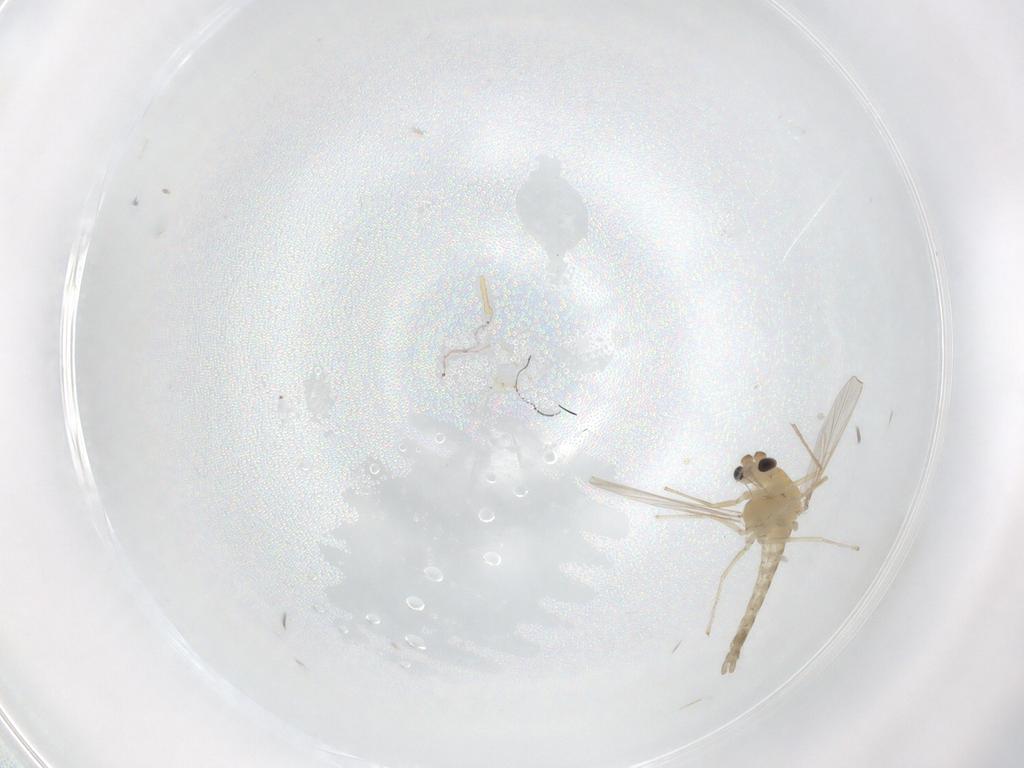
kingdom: Animalia
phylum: Arthropoda
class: Insecta
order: Diptera
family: Chironomidae
